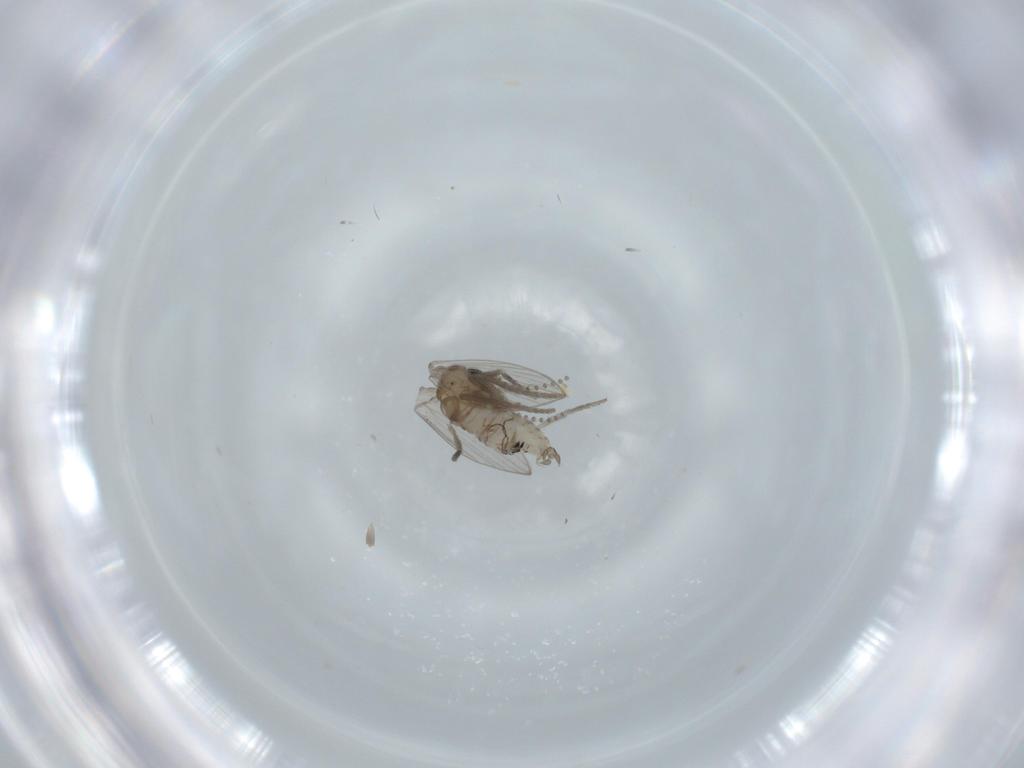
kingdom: Animalia
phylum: Arthropoda
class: Insecta
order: Diptera
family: Psychodidae
